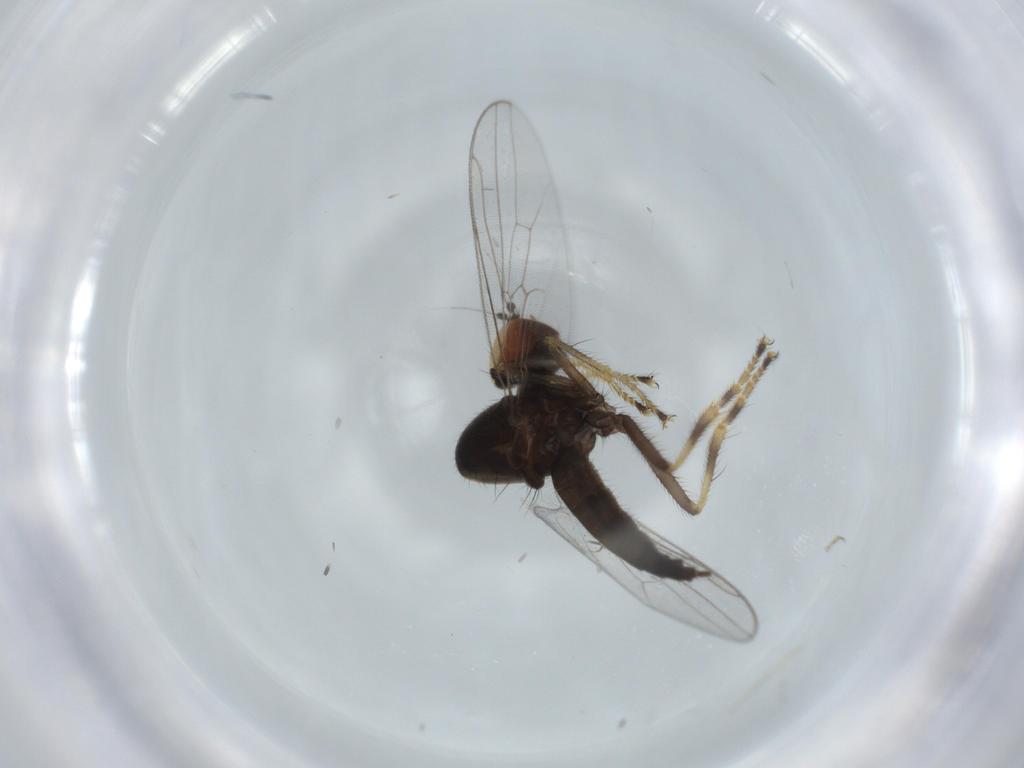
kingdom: Animalia
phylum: Arthropoda
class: Insecta
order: Diptera
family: Hybotidae
